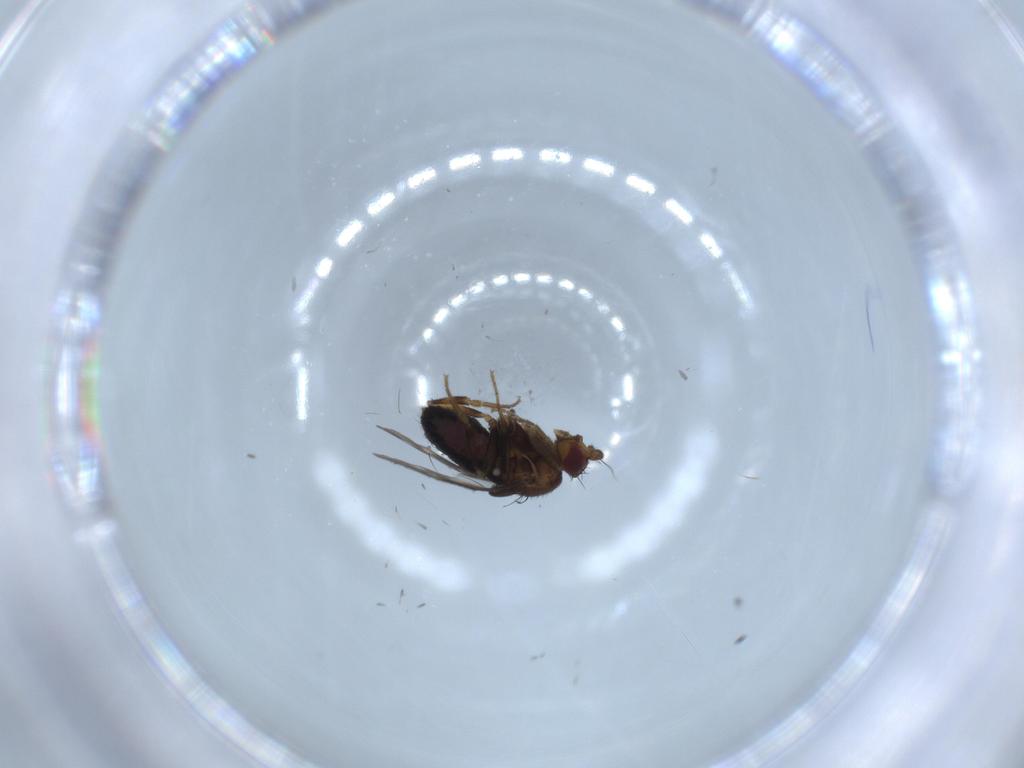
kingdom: Animalia
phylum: Arthropoda
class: Insecta
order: Diptera
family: Sphaeroceridae
